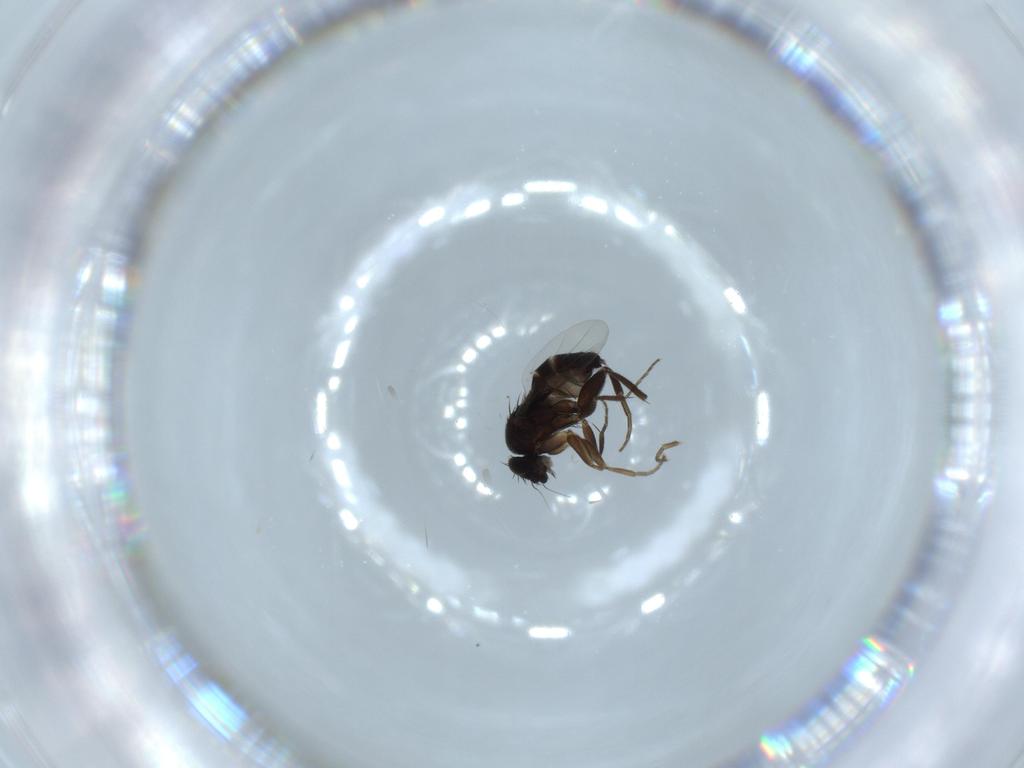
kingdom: Animalia
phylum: Arthropoda
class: Insecta
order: Diptera
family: Phoridae
